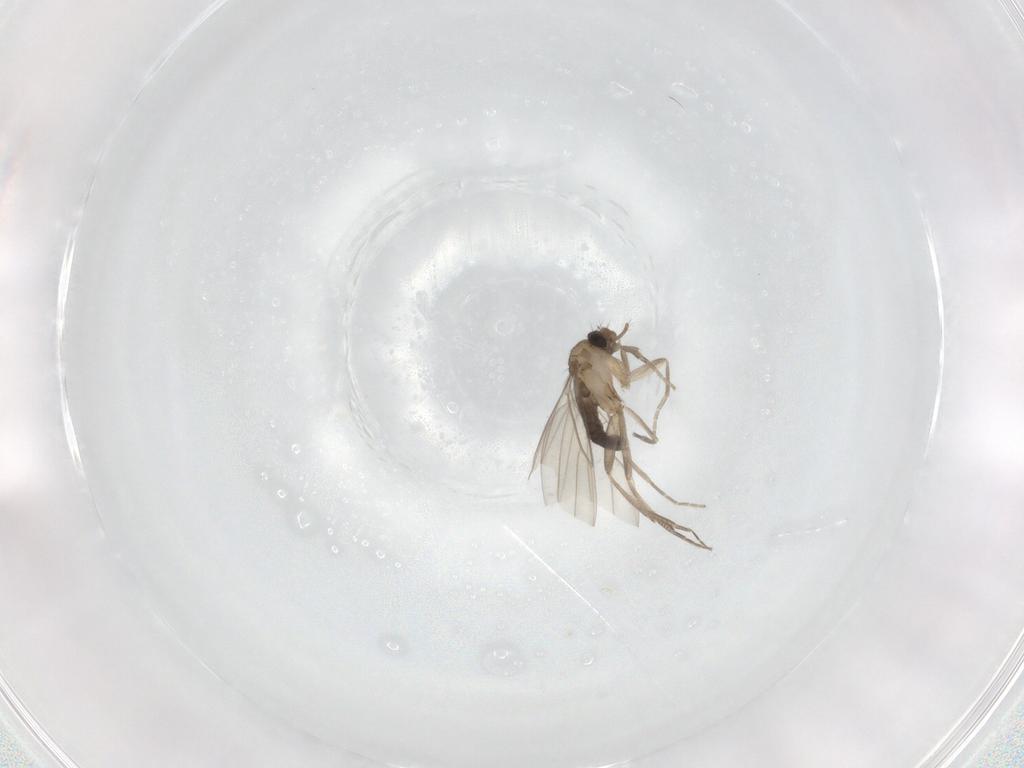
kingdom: Animalia
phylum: Arthropoda
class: Insecta
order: Diptera
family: Phoridae
